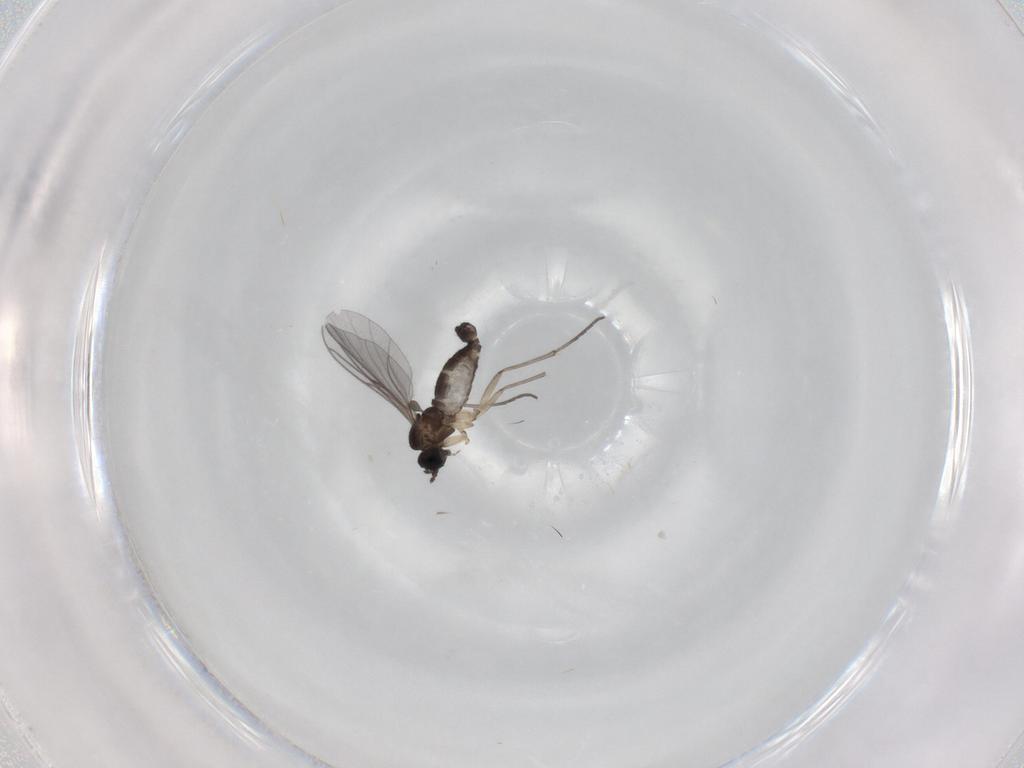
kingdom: Animalia
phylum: Arthropoda
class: Insecta
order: Diptera
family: Sciaridae
